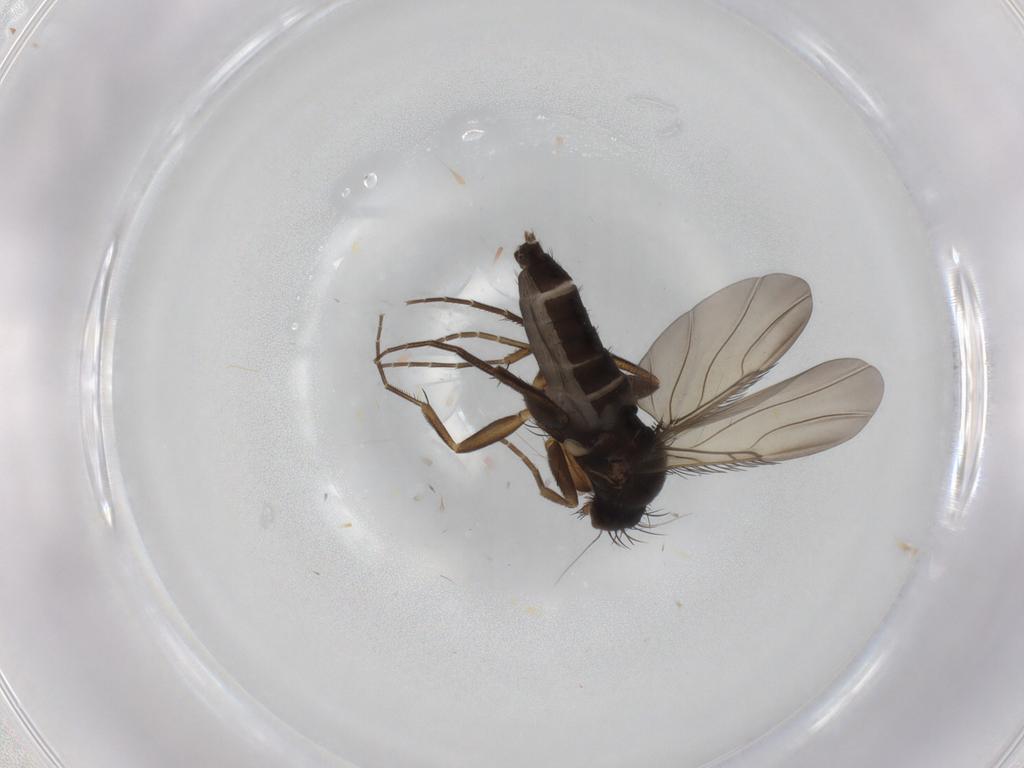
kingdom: Animalia
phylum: Arthropoda
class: Insecta
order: Diptera
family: Phoridae
